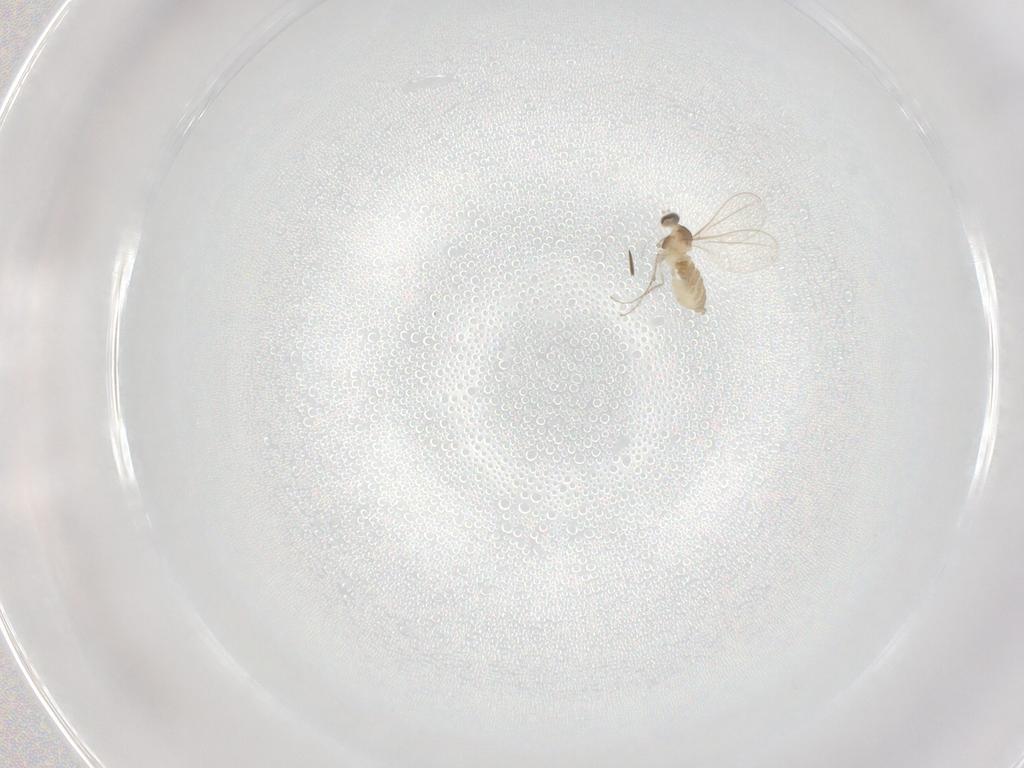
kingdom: Animalia
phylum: Arthropoda
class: Insecta
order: Diptera
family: Cecidomyiidae
